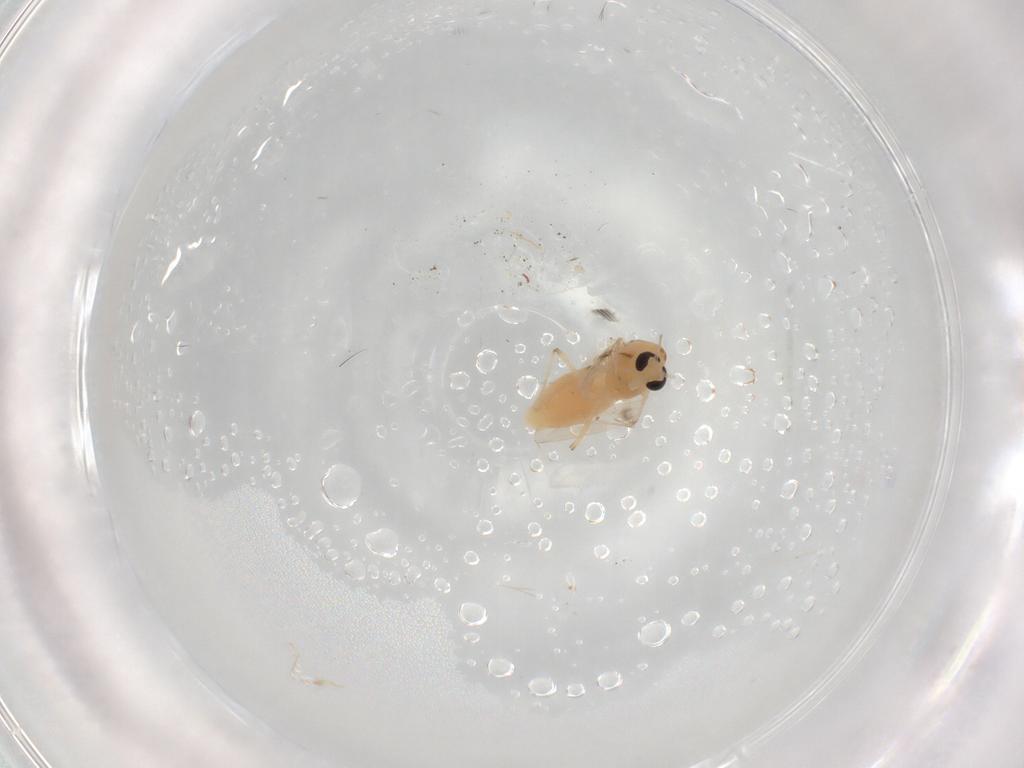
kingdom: Animalia
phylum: Arthropoda
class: Insecta
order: Diptera
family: Chironomidae
